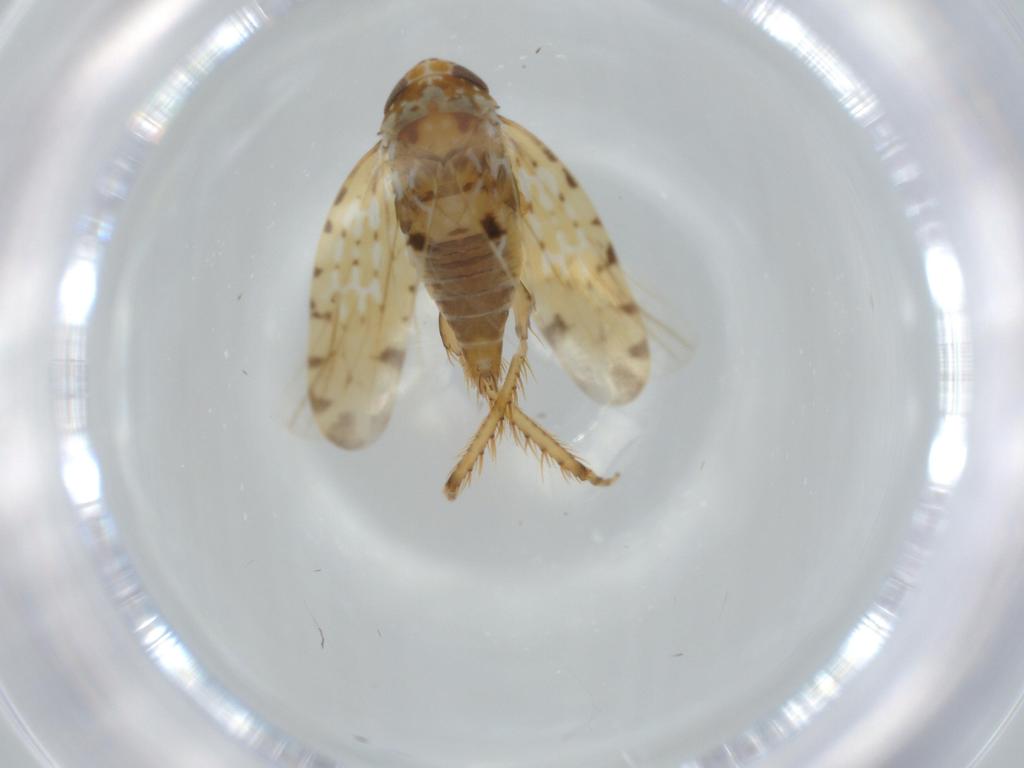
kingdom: Animalia
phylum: Arthropoda
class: Insecta
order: Hemiptera
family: Cicadellidae
